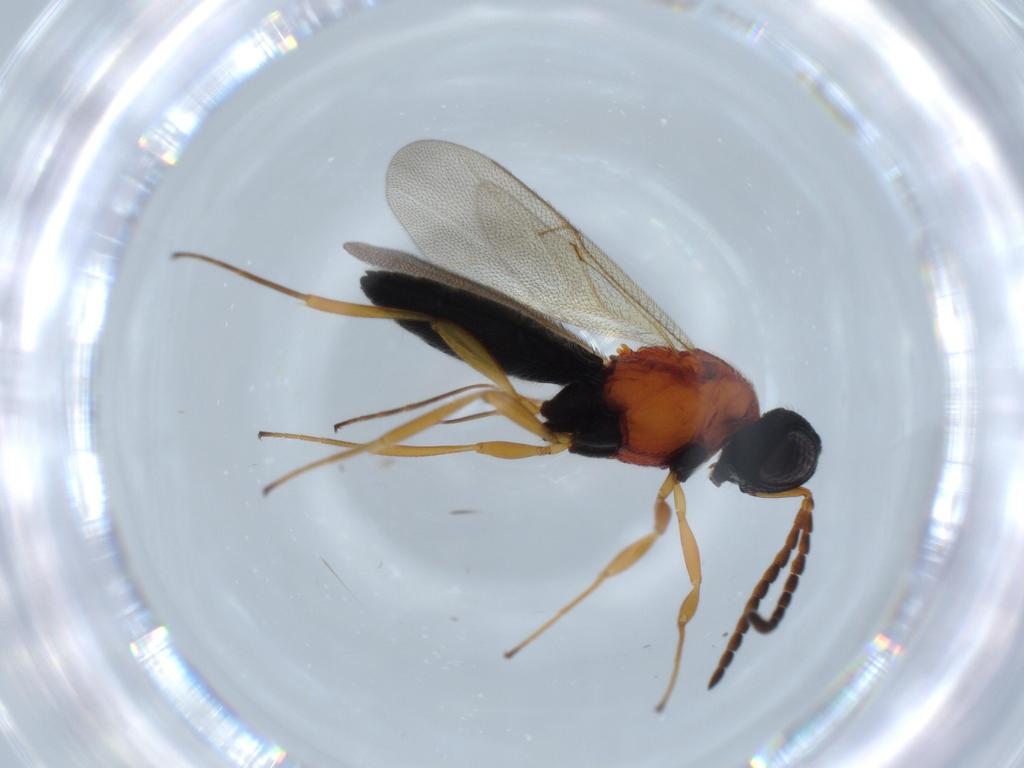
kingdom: Animalia
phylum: Arthropoda
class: Insecta
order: Hymenoptera
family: Scelionidae
